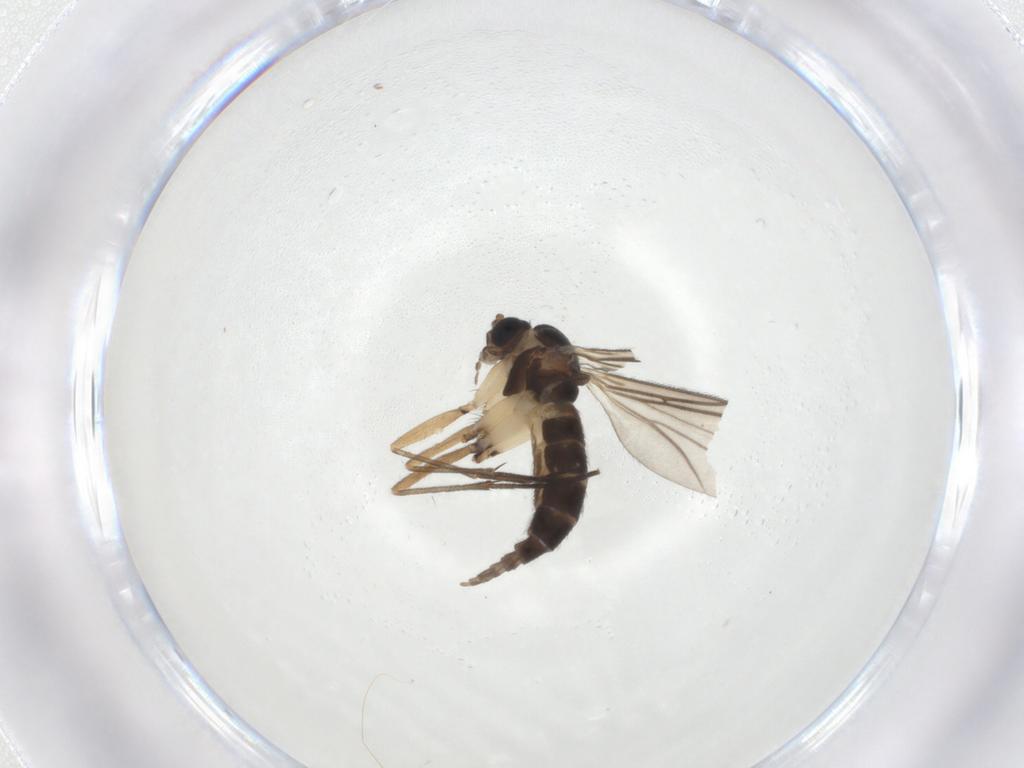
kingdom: Animalia
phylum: Arthropoda
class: Insecta
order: Diptera
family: Sciaridae
